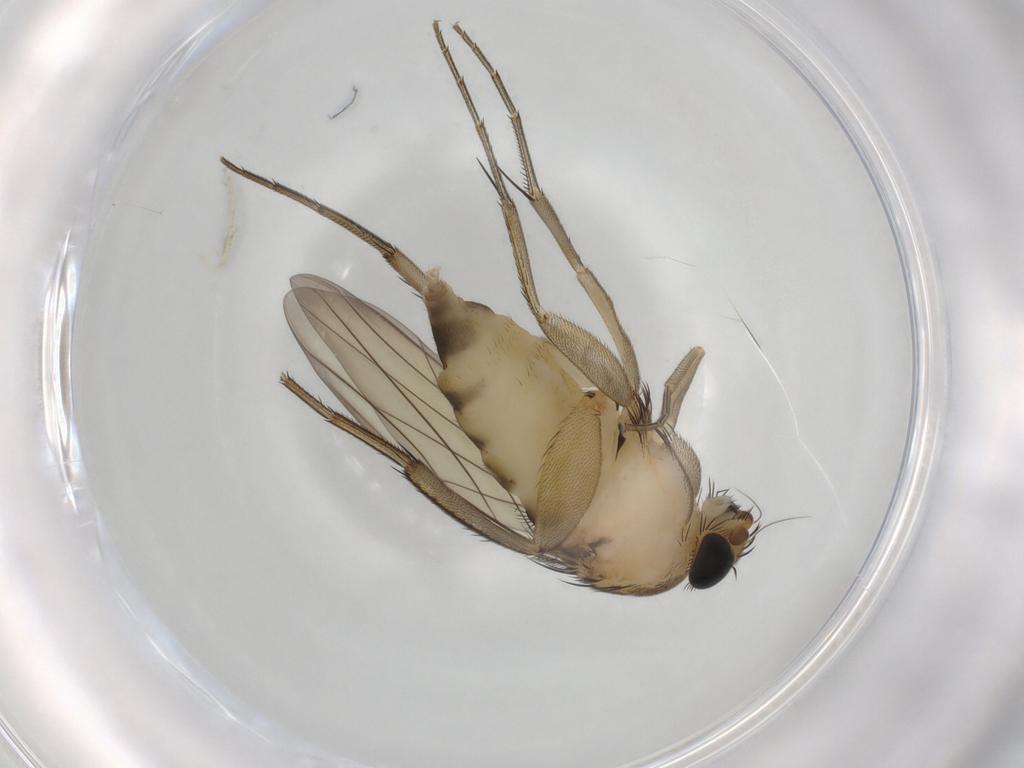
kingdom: Animalia
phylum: Arthropoda
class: Insecta
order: Diptera
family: Phoridae
